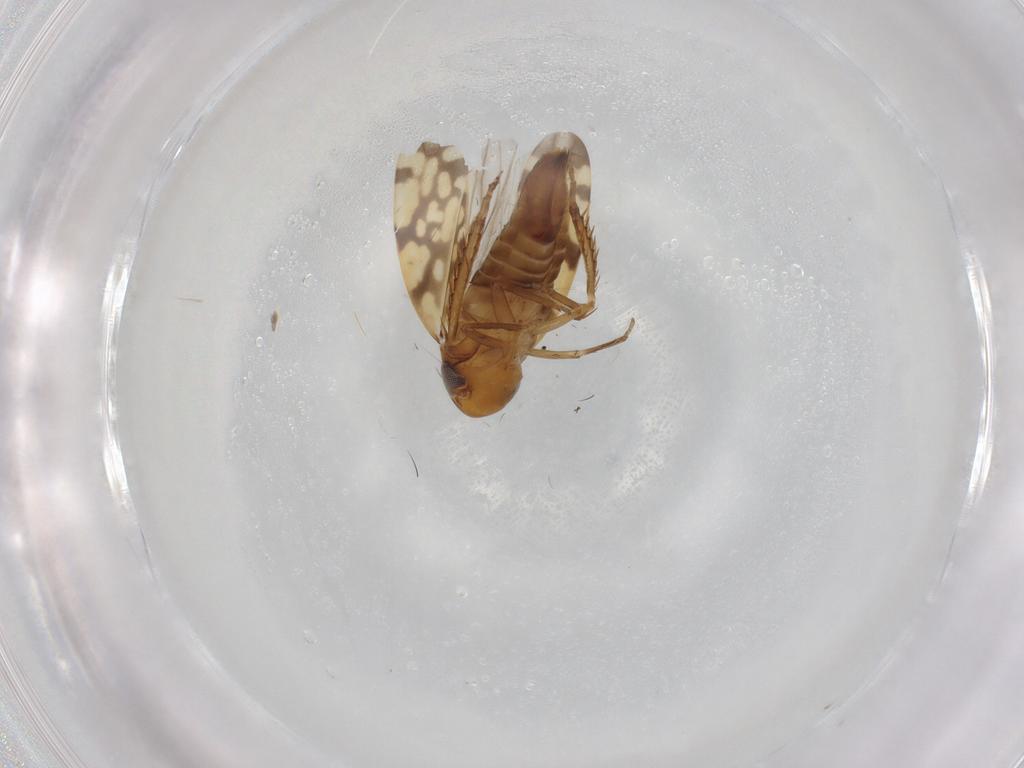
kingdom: Animalia
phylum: Arthropoda
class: Insecta
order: Hemiptera
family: Cicadellidae
